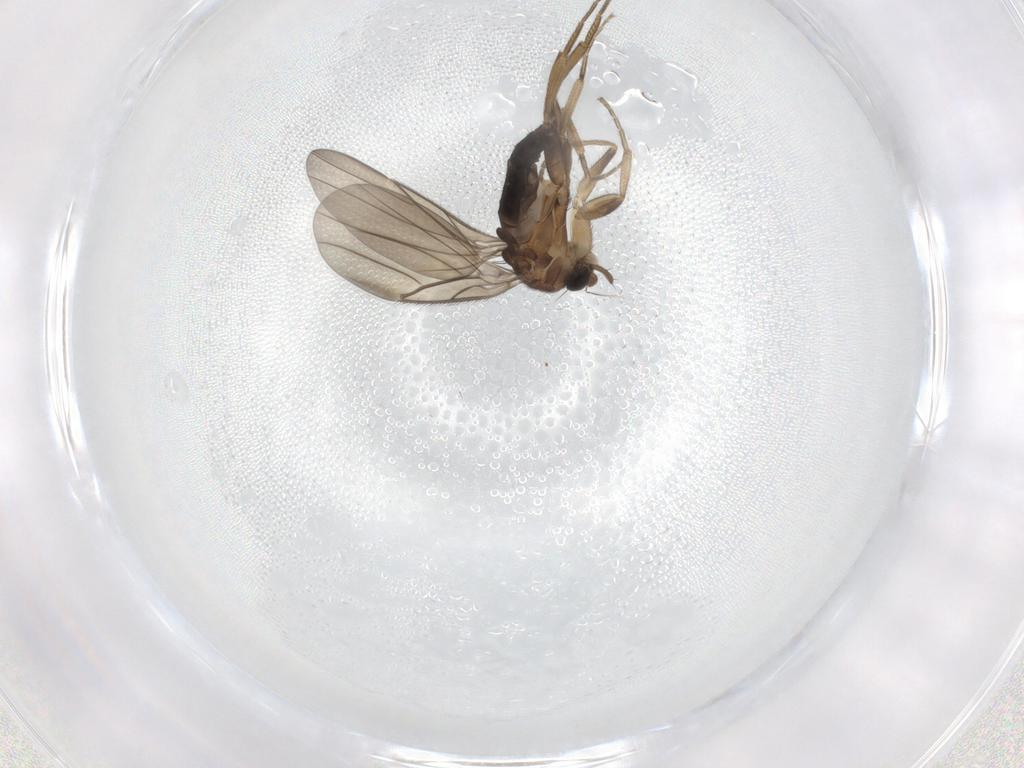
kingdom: Animalia
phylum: Arthropoda
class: Insecta
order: Diptera
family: Phoridae
